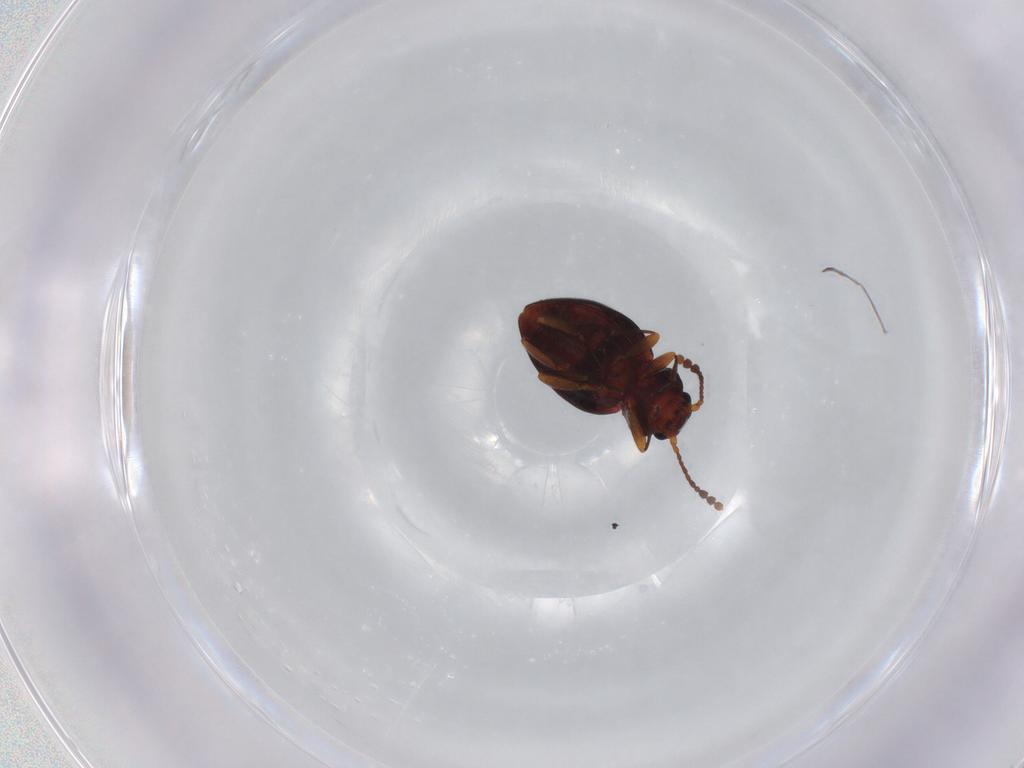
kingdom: Animalia
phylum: Arthropoda
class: Insecta
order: Coleoptera
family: Erotylidae
